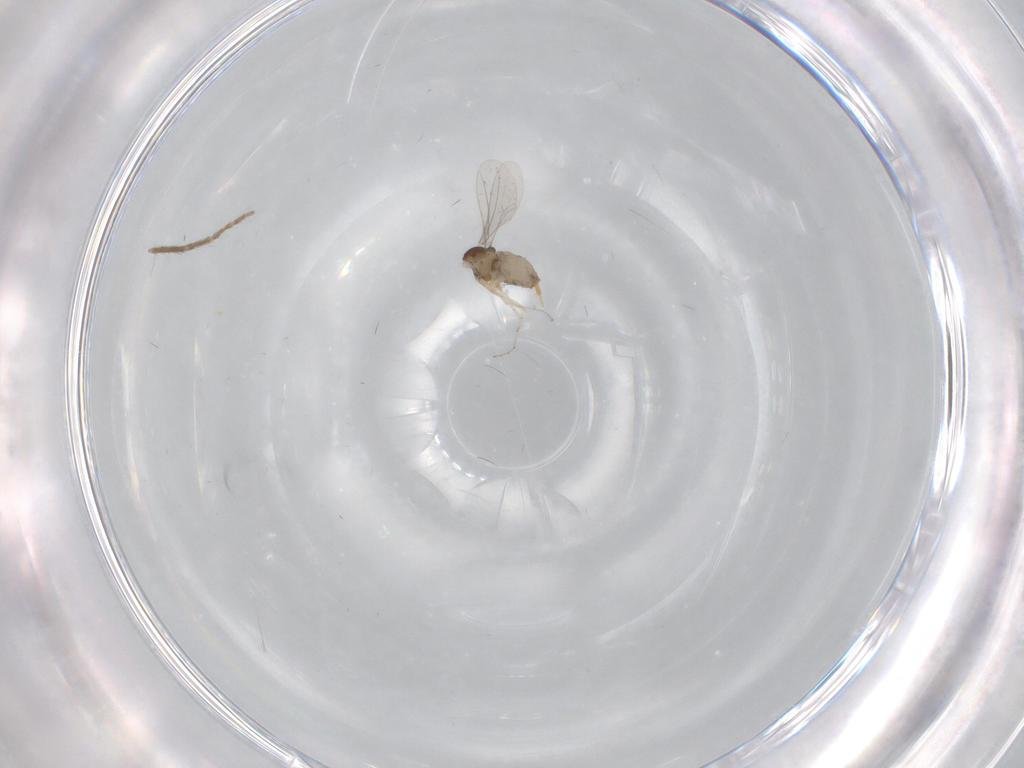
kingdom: Animalia
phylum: Arthropoda
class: Insecta
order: Diptera
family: Cecidomyiidae
